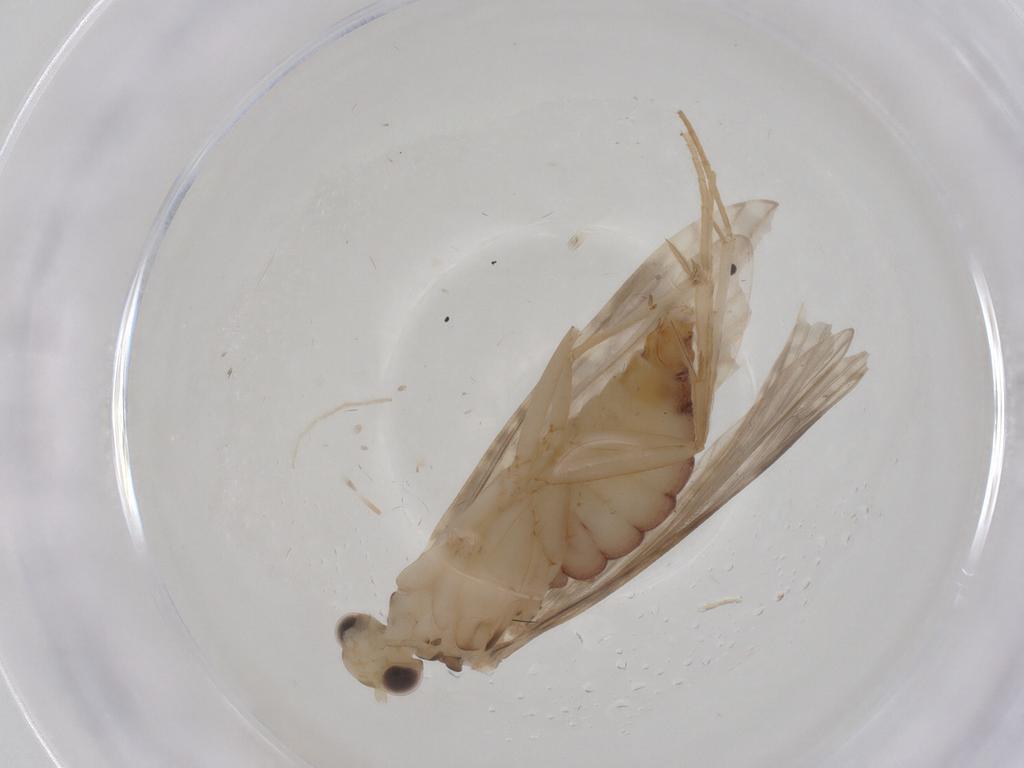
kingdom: Animalia
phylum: Arthropoda
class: Insecta
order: Trichoptera
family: Ecnomidae
